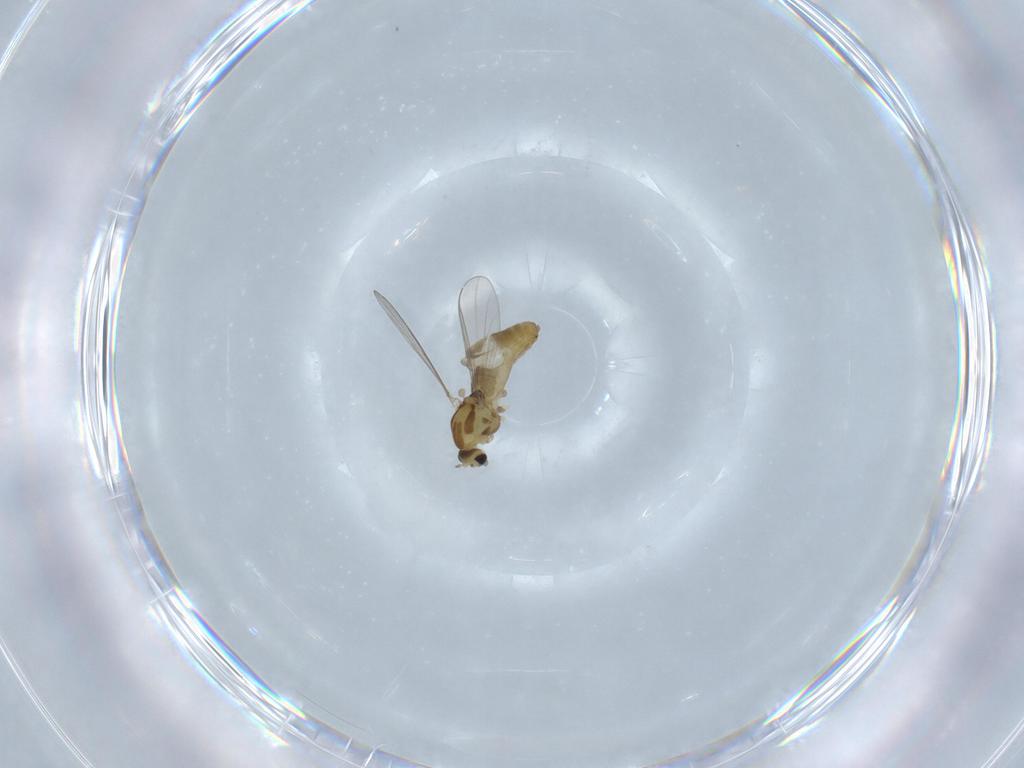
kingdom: Animalia
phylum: Arthropoda
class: Insecta
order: Diptera
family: Chironomidae
